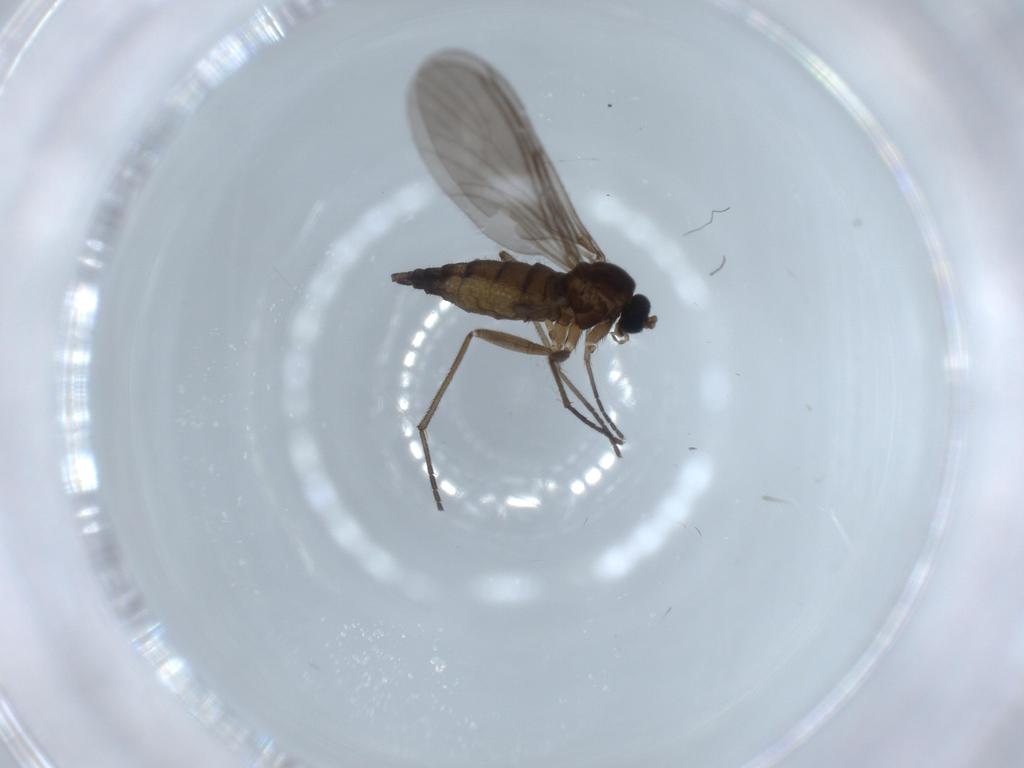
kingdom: Animalia
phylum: Arthropoda
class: Insecta
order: Diptera
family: Sciaridae
